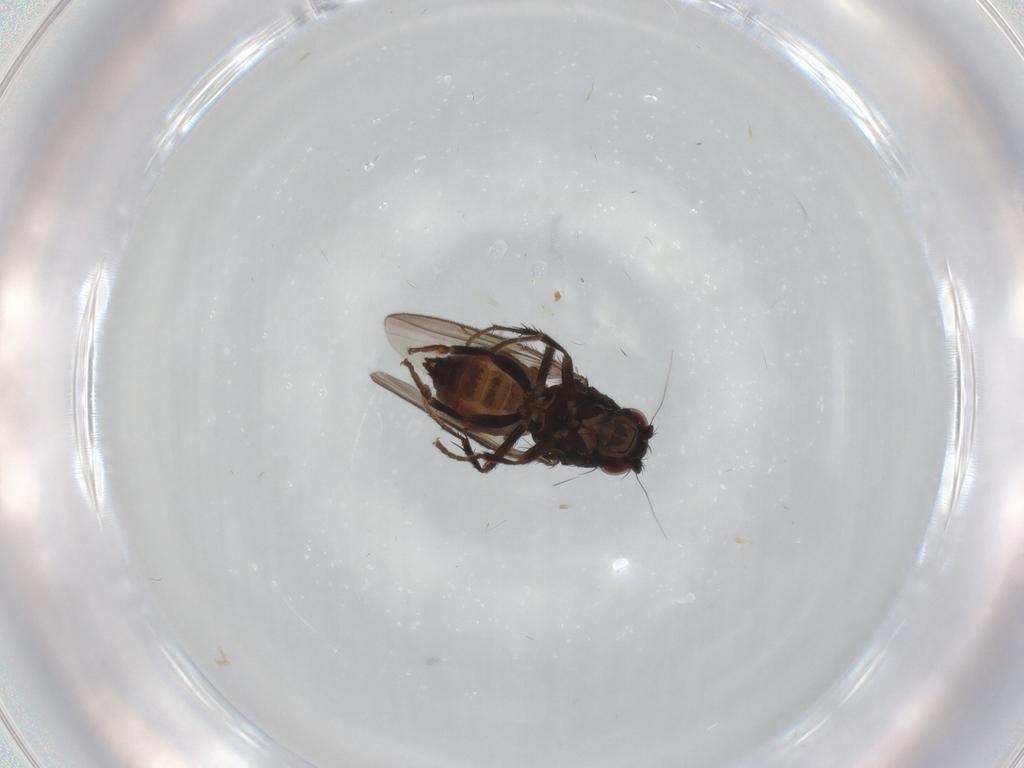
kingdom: Animalia
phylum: Arthropoda
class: Insecta
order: Diptera
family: Sphaeroceridae
